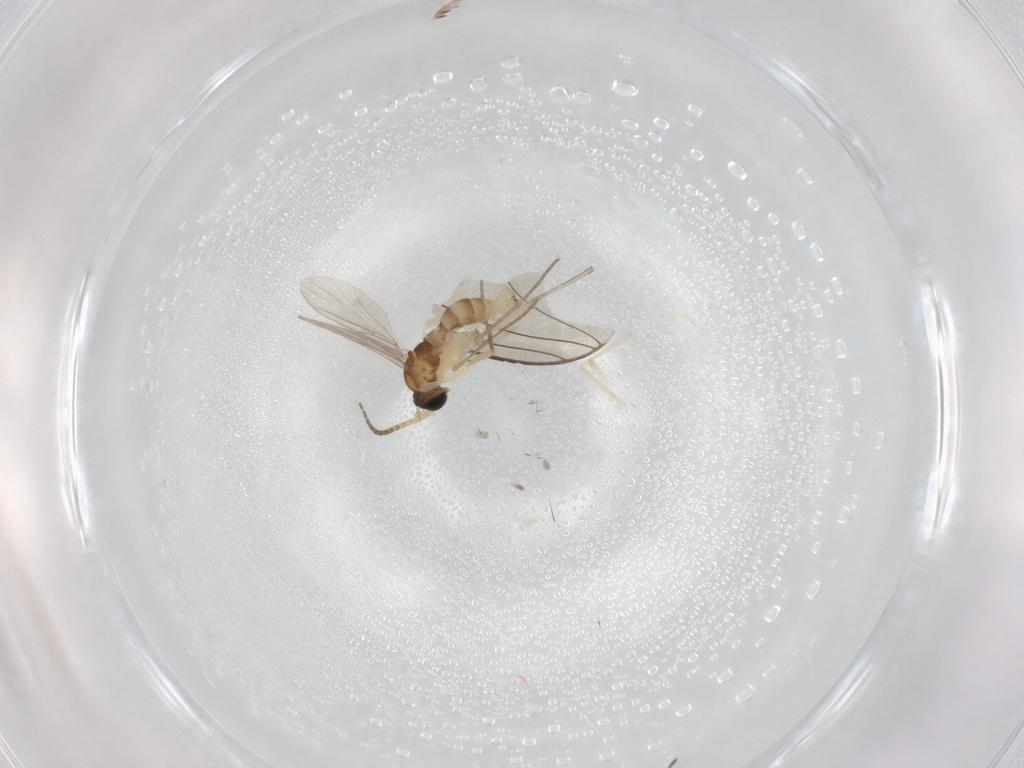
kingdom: Animalia
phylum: Arthropoda
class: Insecta
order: Diptera
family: Sciaridae
